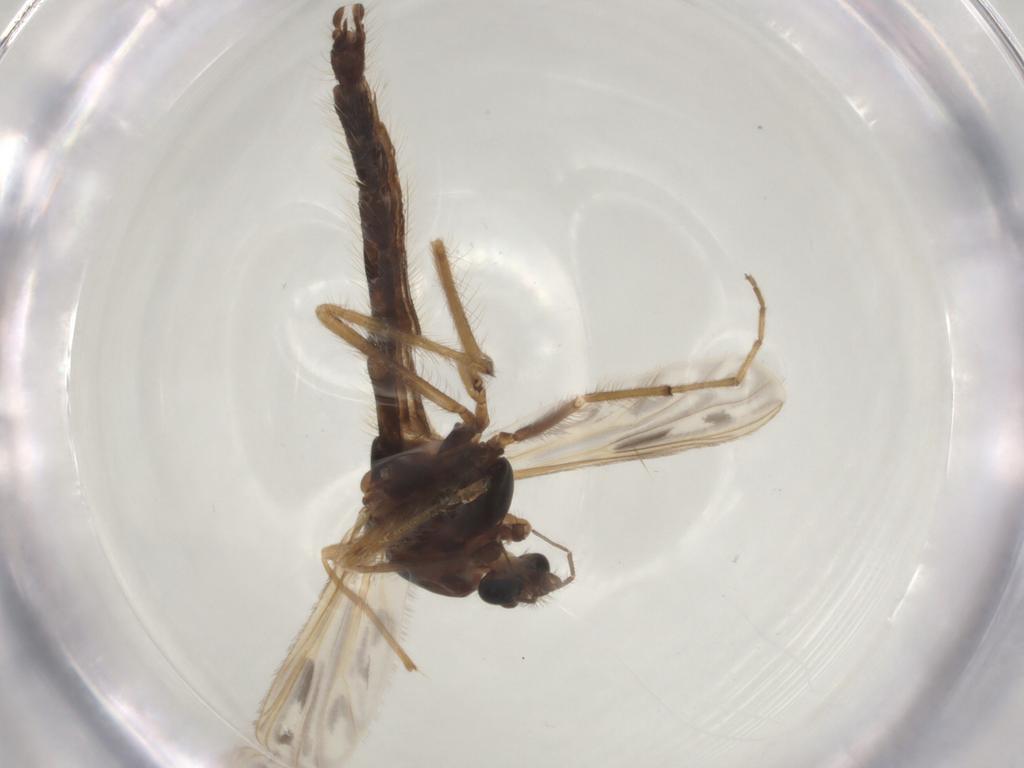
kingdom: Animalia
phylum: Arthropoda
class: Insecta
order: Diptera
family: Chironomidae
